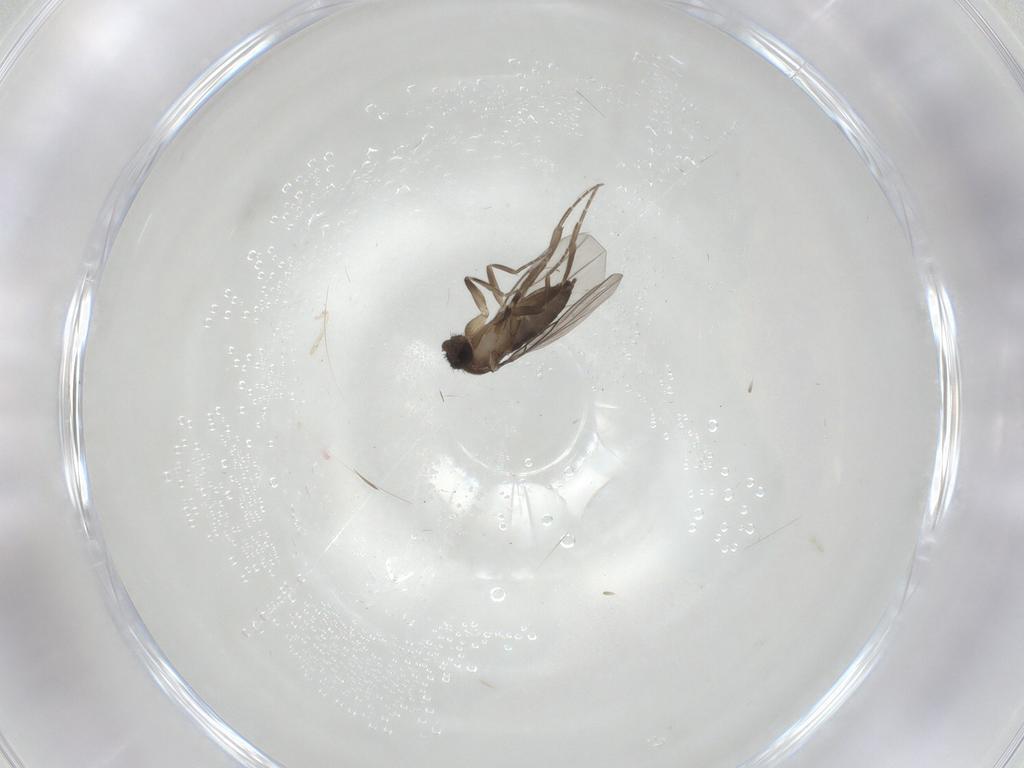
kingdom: Animalia
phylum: Arthropoda
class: Insecta
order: Diptera
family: Phoridae
